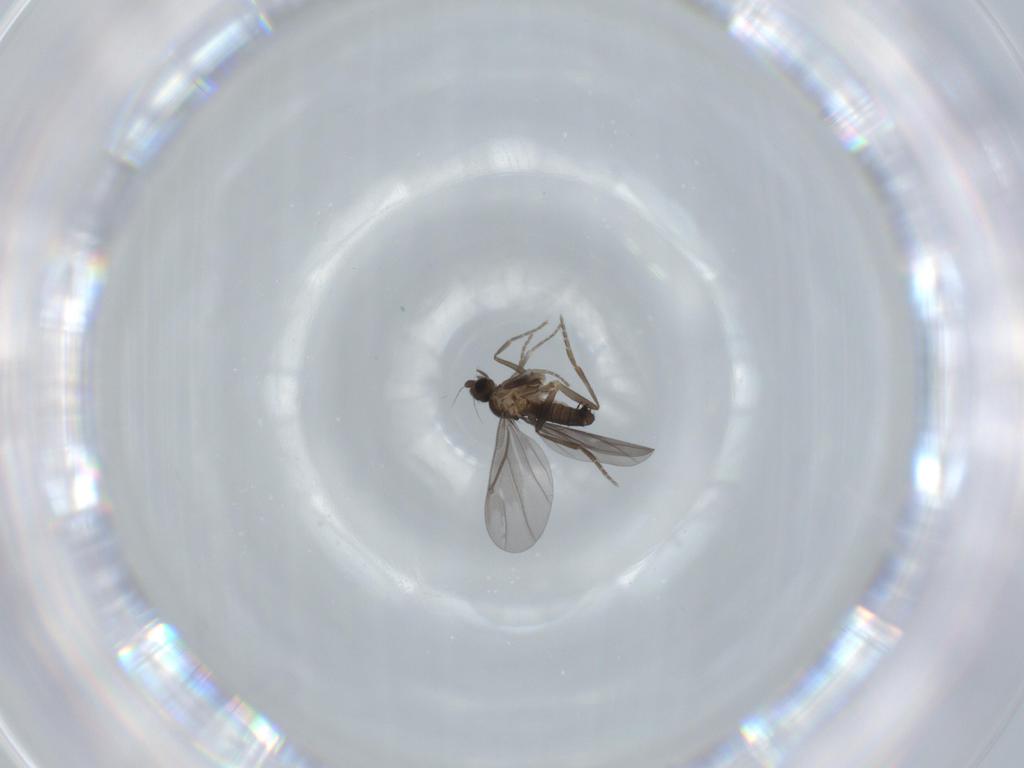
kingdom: Animalia
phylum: Arthropoda
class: Insecta
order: Diptera
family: Phoridae
